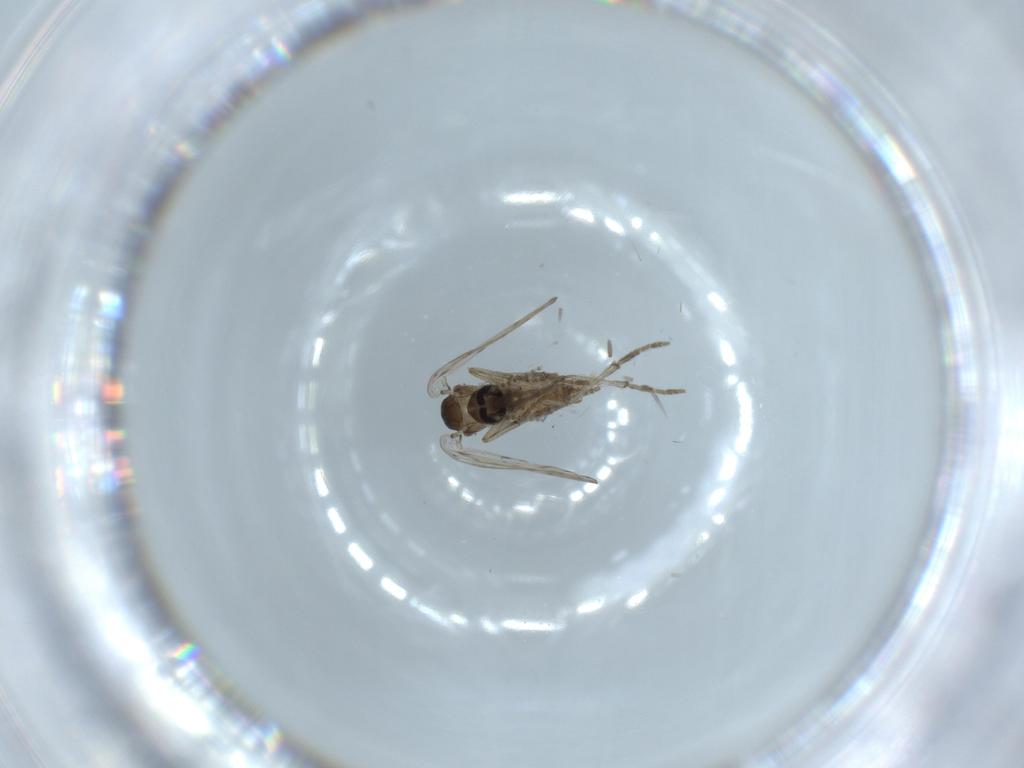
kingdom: Animalia
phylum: Arthropoda
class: Insecta
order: Diptera
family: Psychodidae
